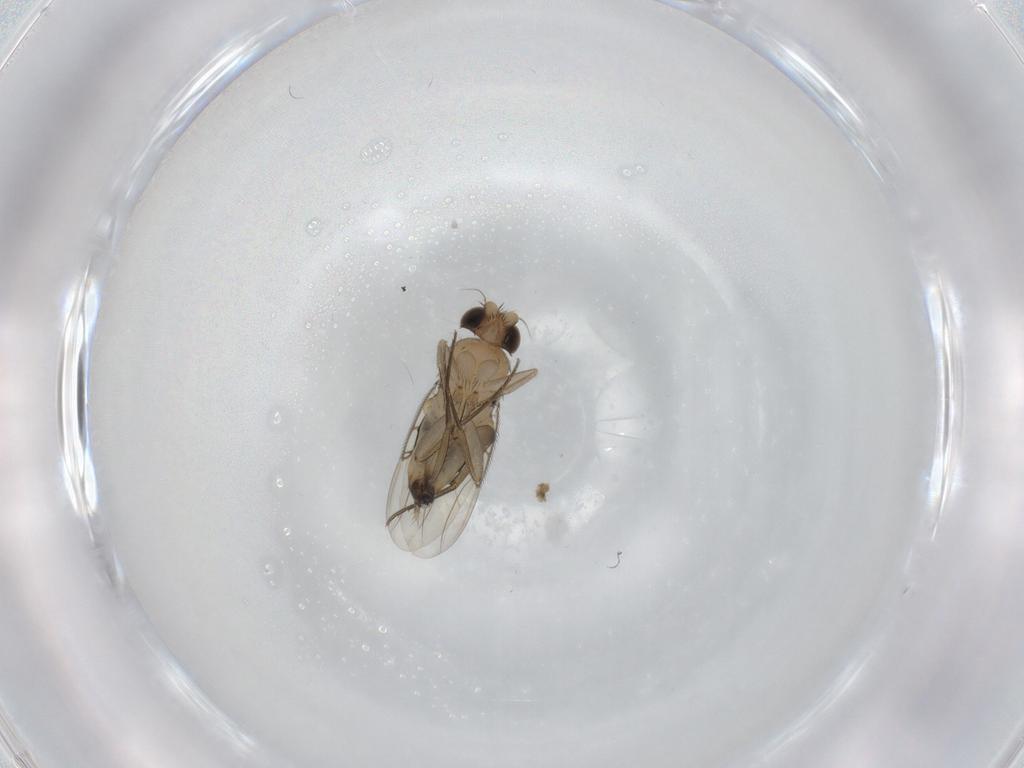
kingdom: Animalia
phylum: Arthropoda
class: Insecta
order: Diptera
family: Phoridae
